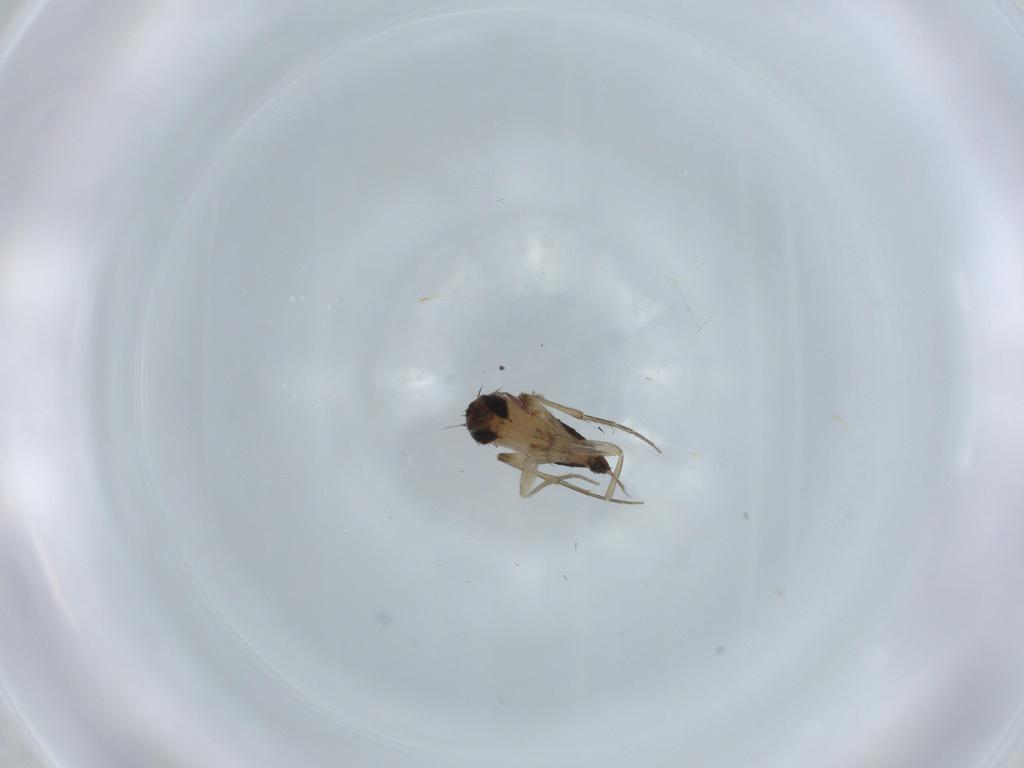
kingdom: Animalia
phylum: Arthropoda
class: Insecta
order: Diptera
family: Phoridae
